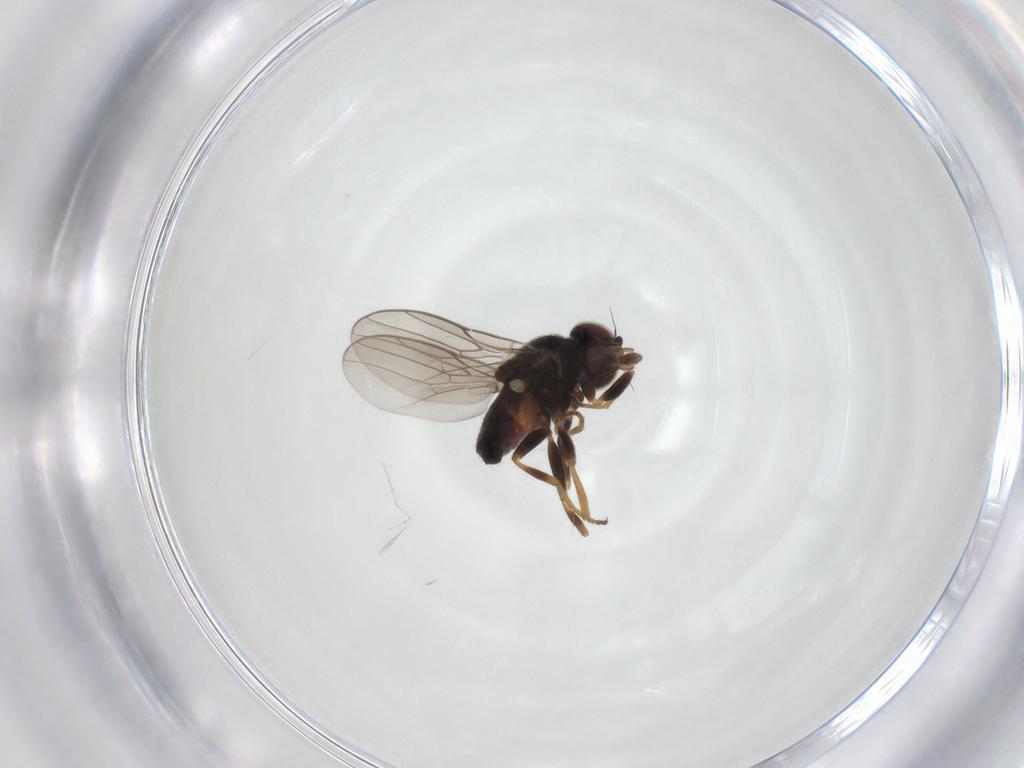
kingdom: Animalia
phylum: Arthropoda
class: Insecta
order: Diptera
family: Chloropidae
